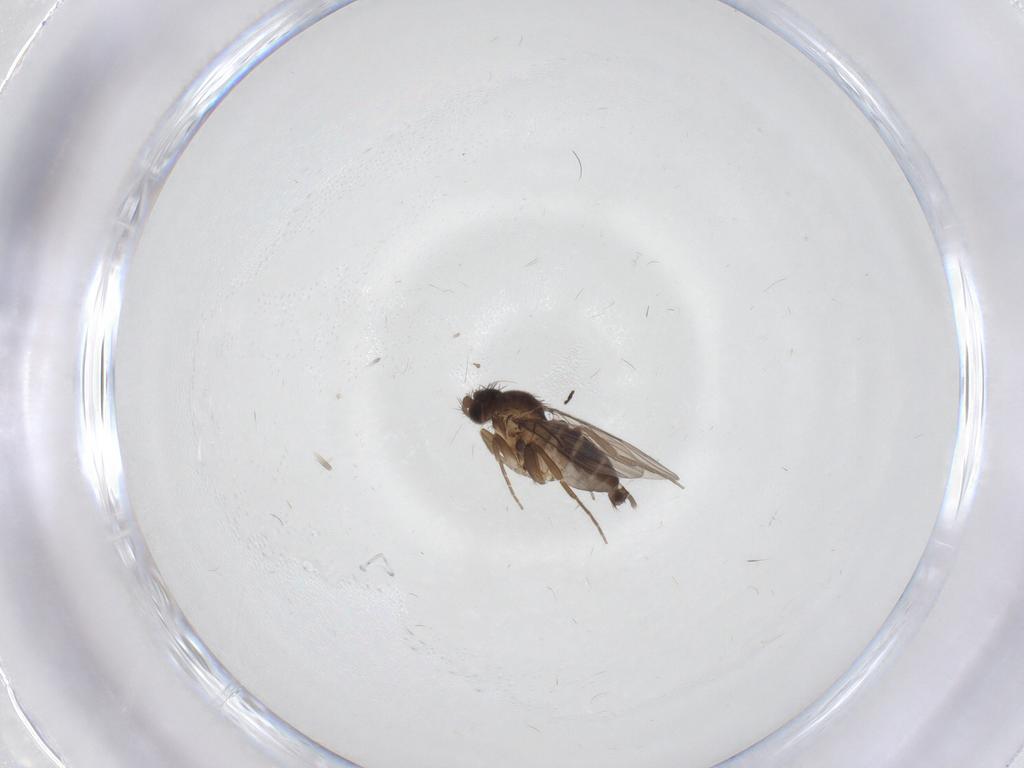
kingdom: Animalia
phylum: Arthropoda
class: Insecta
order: Diptera
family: Phoridae
